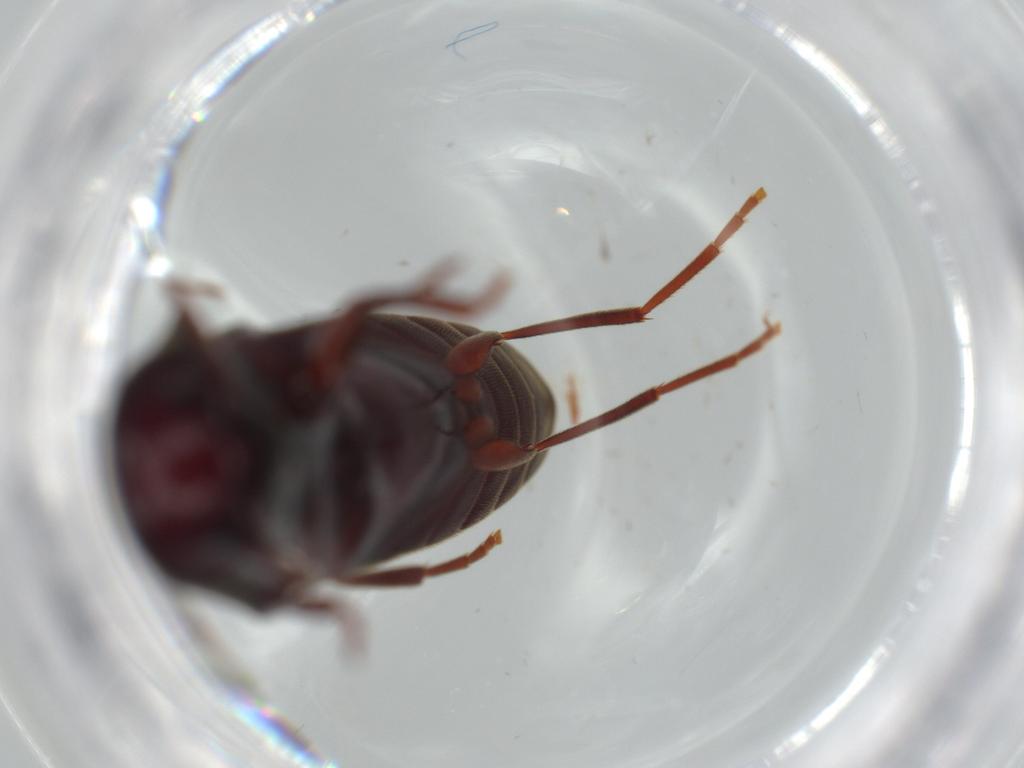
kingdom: Animalia
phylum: Arthropoda
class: Insecta
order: Coleoptera
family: Eucnemidae
